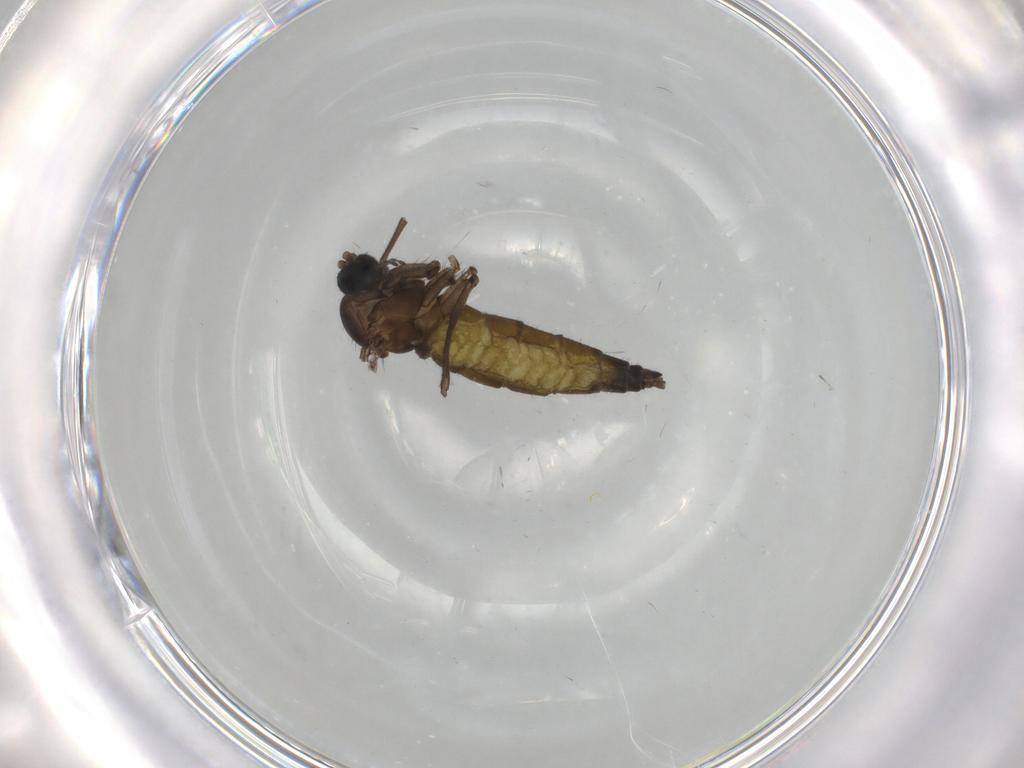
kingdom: Animalia
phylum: Arthropoda
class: Insecta
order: Diptera
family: Sciaridae
